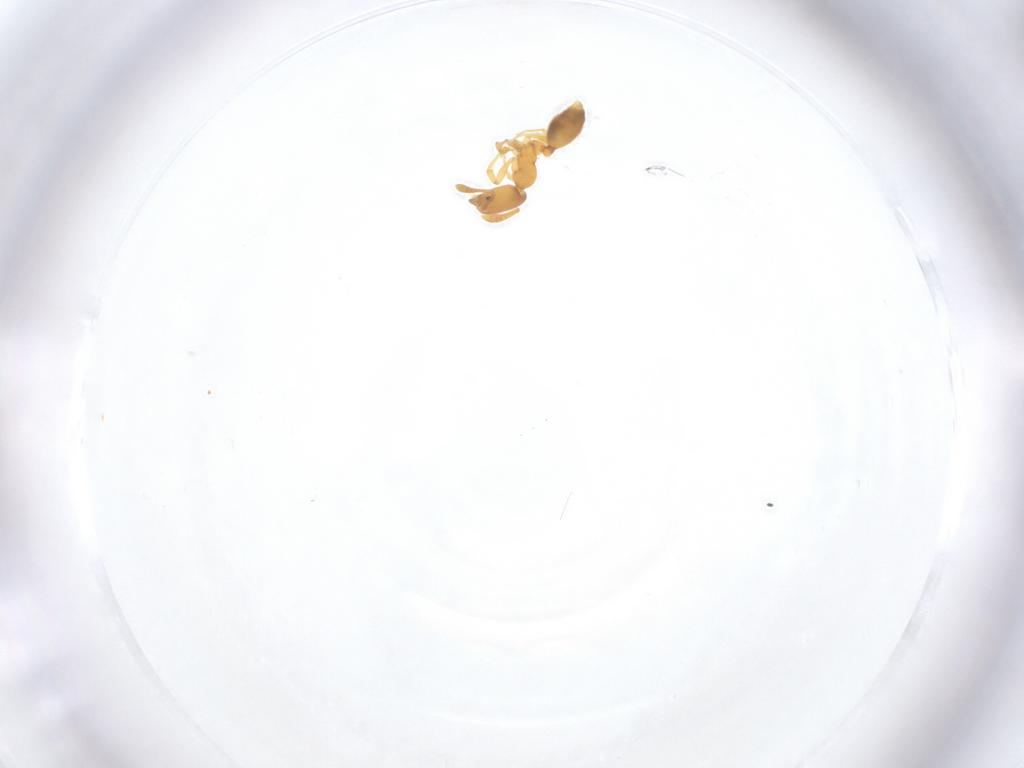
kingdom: Animalia
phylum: Arthropoda
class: Insecta
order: Hymenoptera
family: Formicidae
